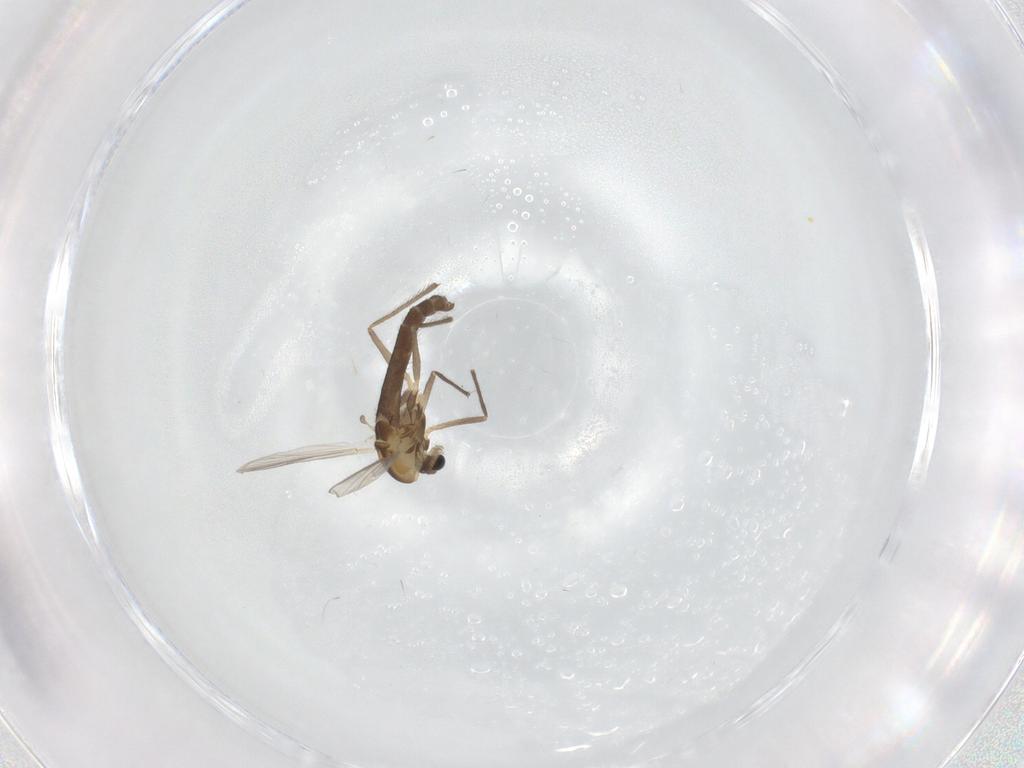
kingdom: Animalia
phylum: Arthropoda
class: Insecta
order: Diptera
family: Chironomidae
